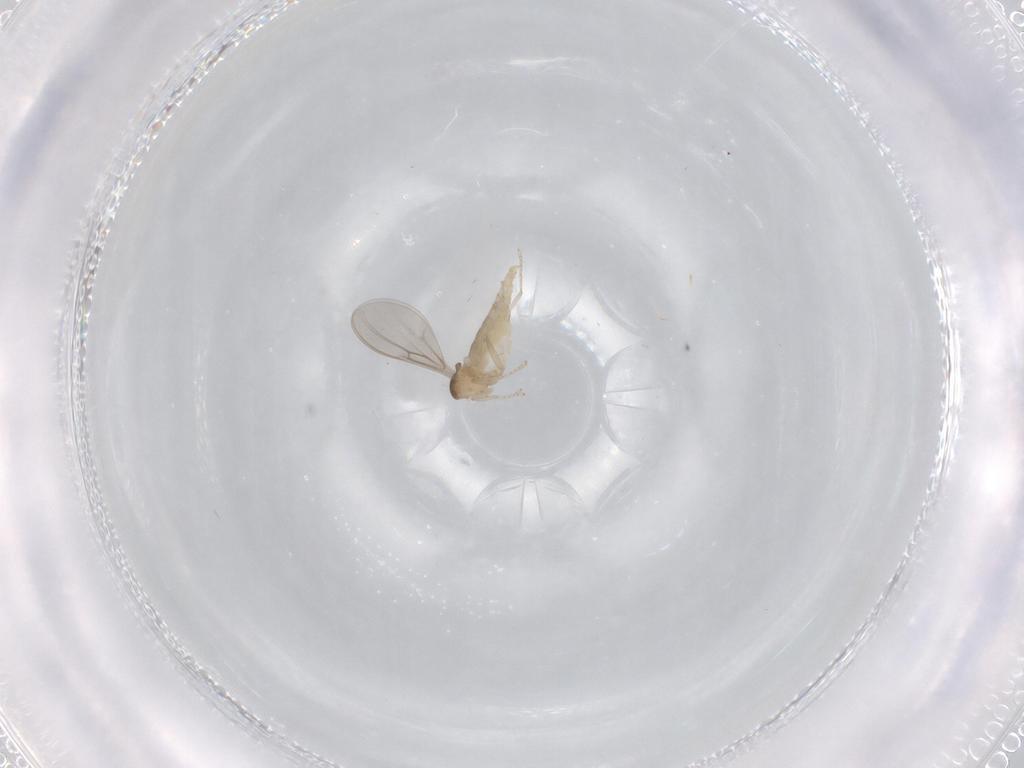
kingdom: Animalia
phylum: Arthropoda
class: Insecta
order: Diptera
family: Cecidomyiidae
